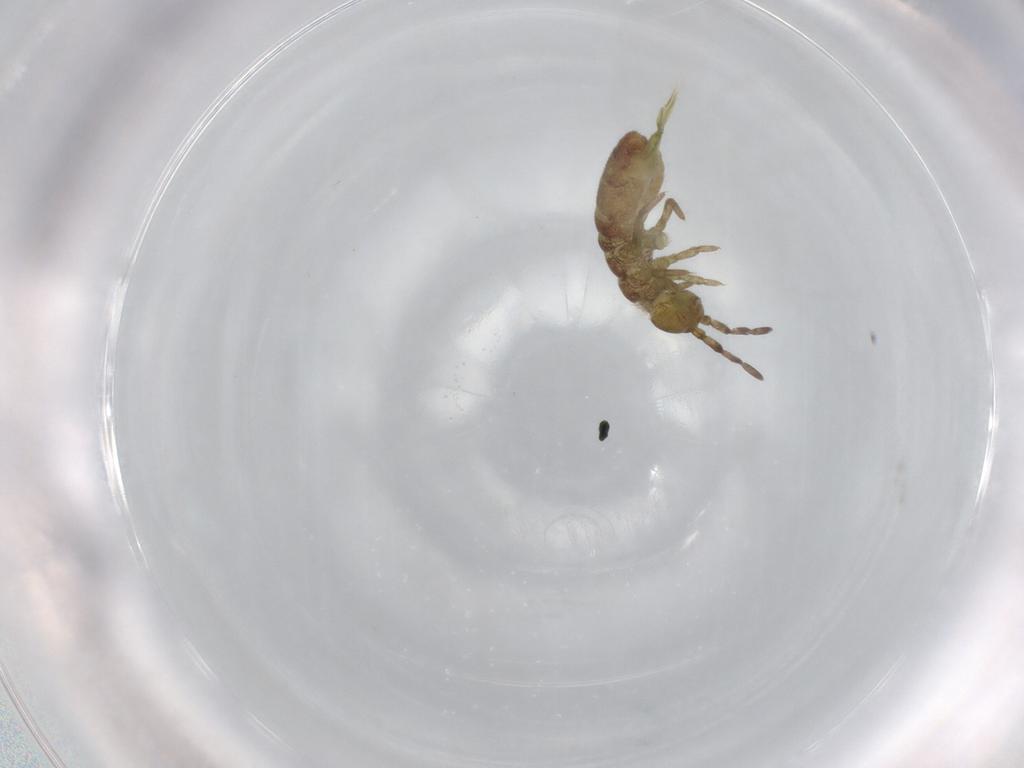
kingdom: Animalia
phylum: Arthropoda
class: Collembola
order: Entomobryomorpha
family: Isotomidae
